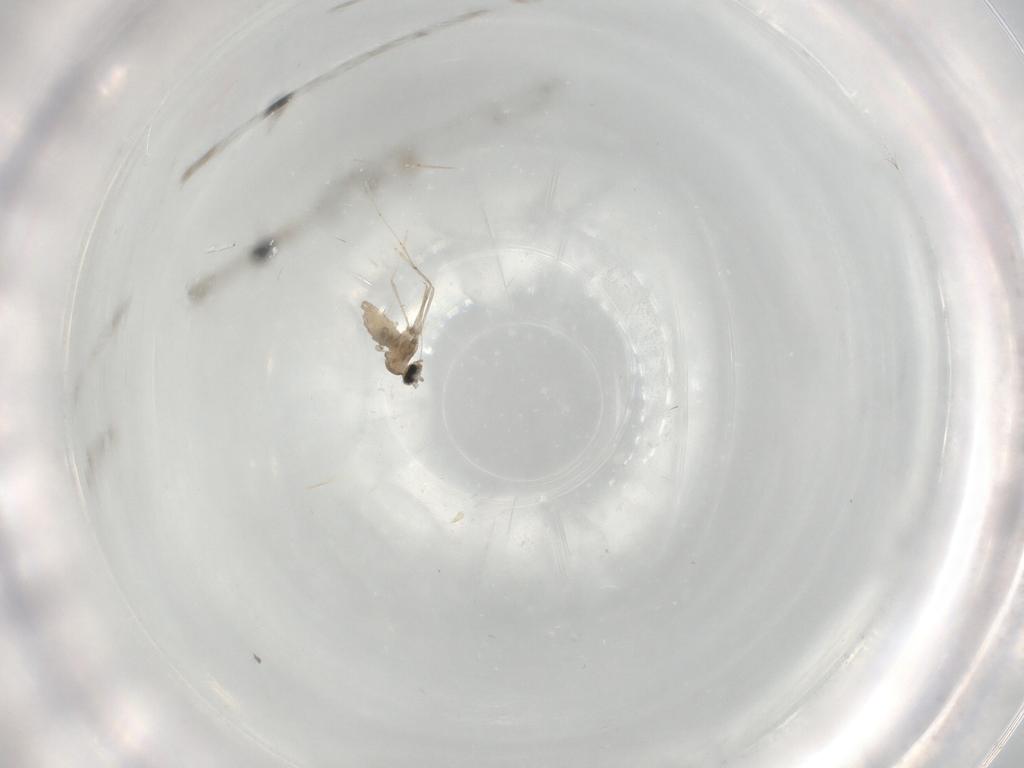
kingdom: Animalia
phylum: Arthropoda
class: Insecta
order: Diptera
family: Cecidomyiidae
